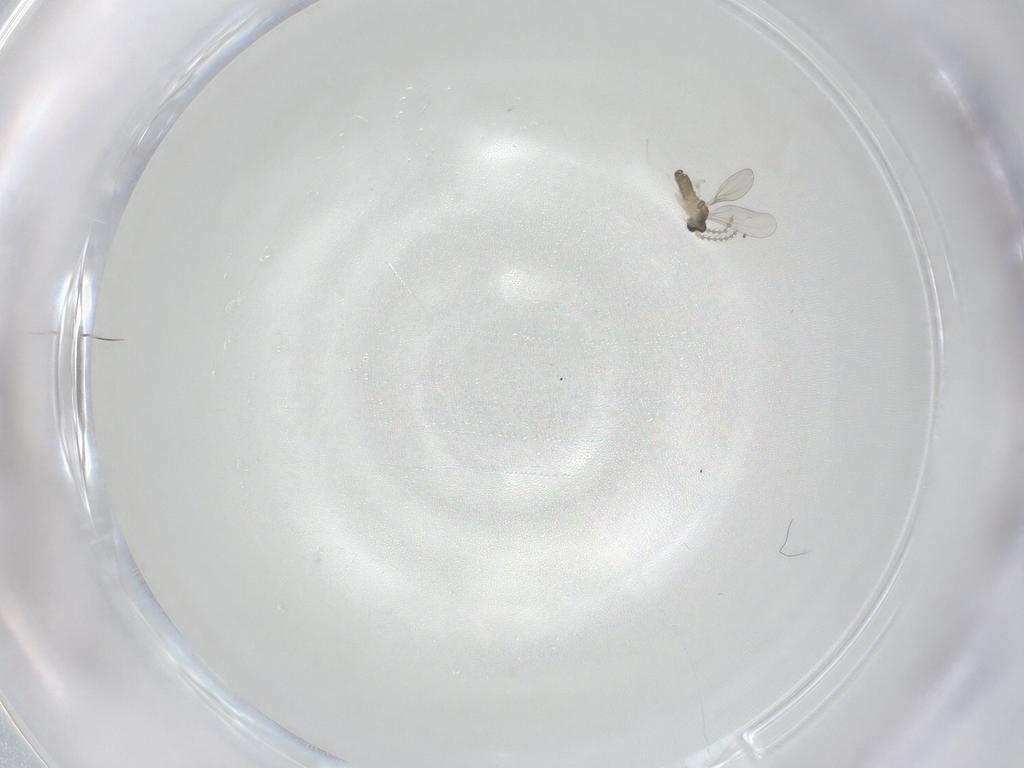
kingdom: Animalia
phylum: Arthropoda
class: Insecta
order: Diptera
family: Cecidomyiidae
